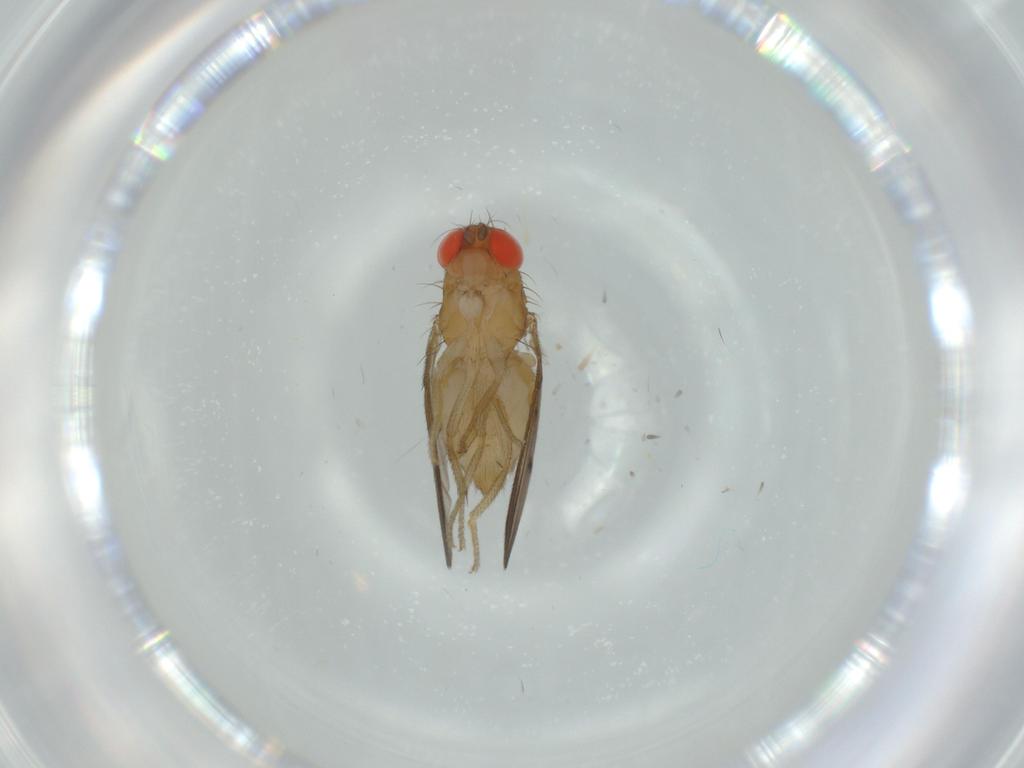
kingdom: Animalia
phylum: Arthropoda
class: Insecta
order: Diptera
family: Drosophilidae
